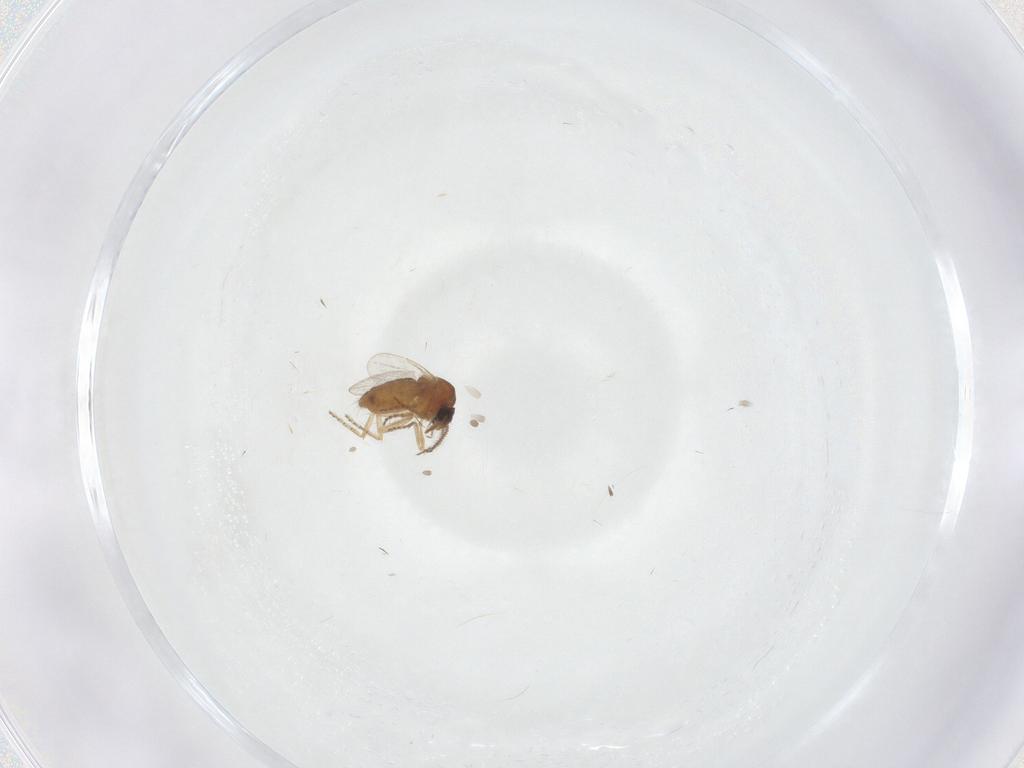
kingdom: Animalia
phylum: Arthropoda
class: Insecta
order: Diptera
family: Ceratopogonidae
